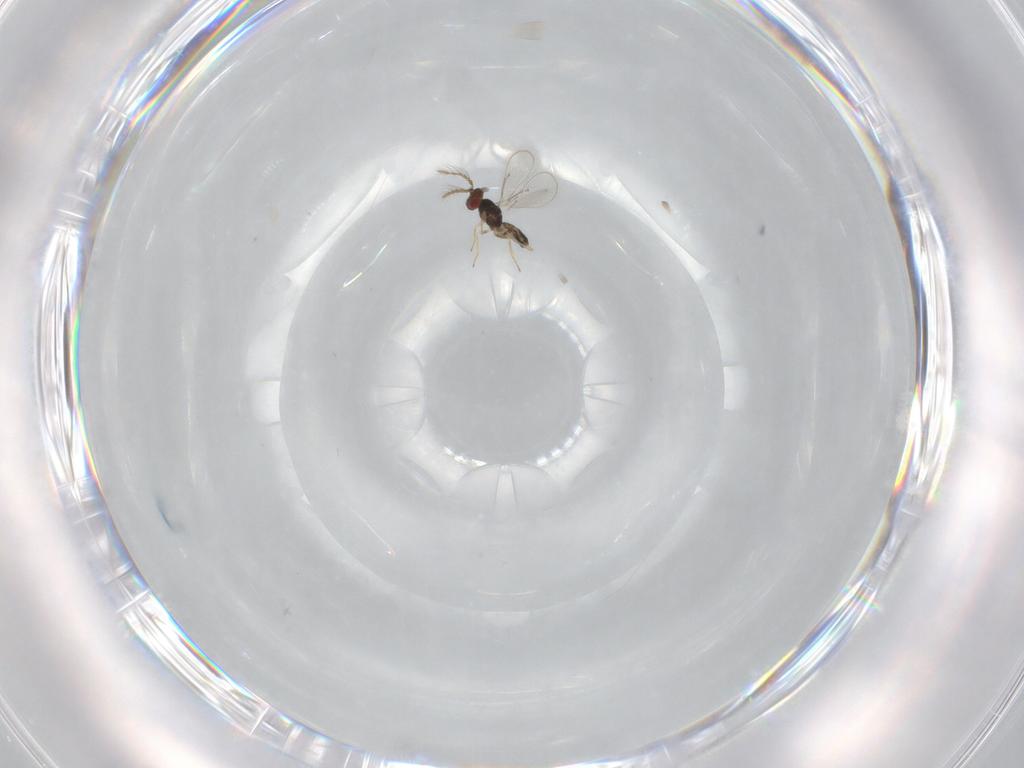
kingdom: Animalia
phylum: Arthropoda
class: Insecta
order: Hymenoptera
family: Eulophidae
